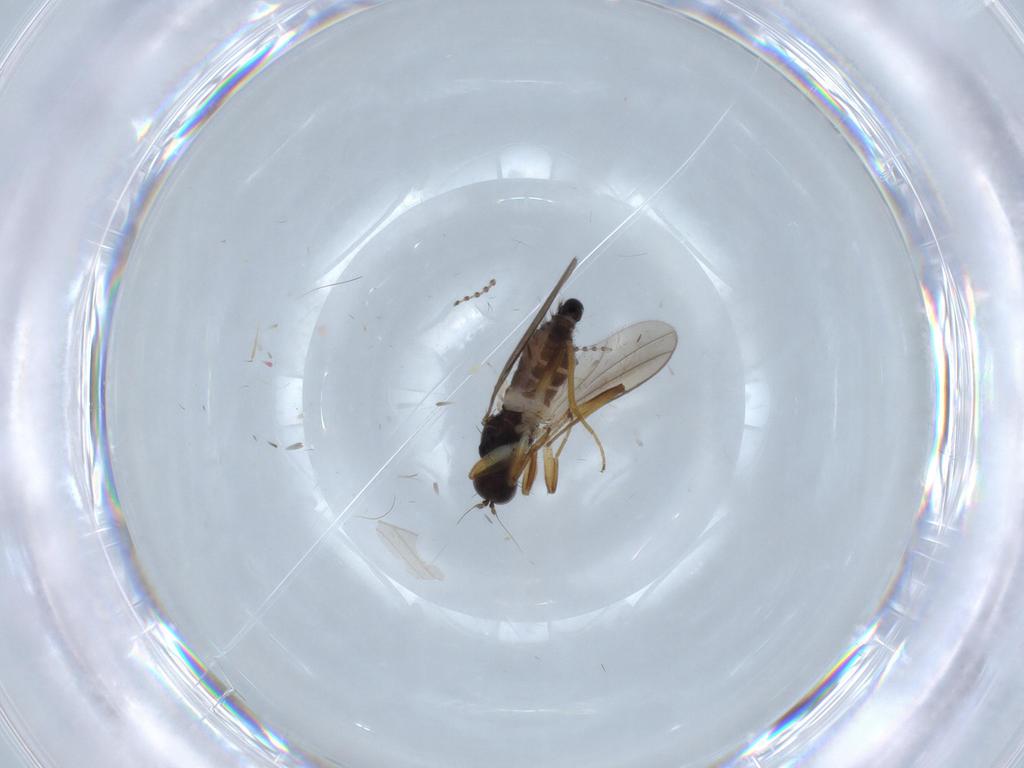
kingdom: Animalia
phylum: Arthropoda
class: Insecta
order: Diptera
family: Hybotidae
